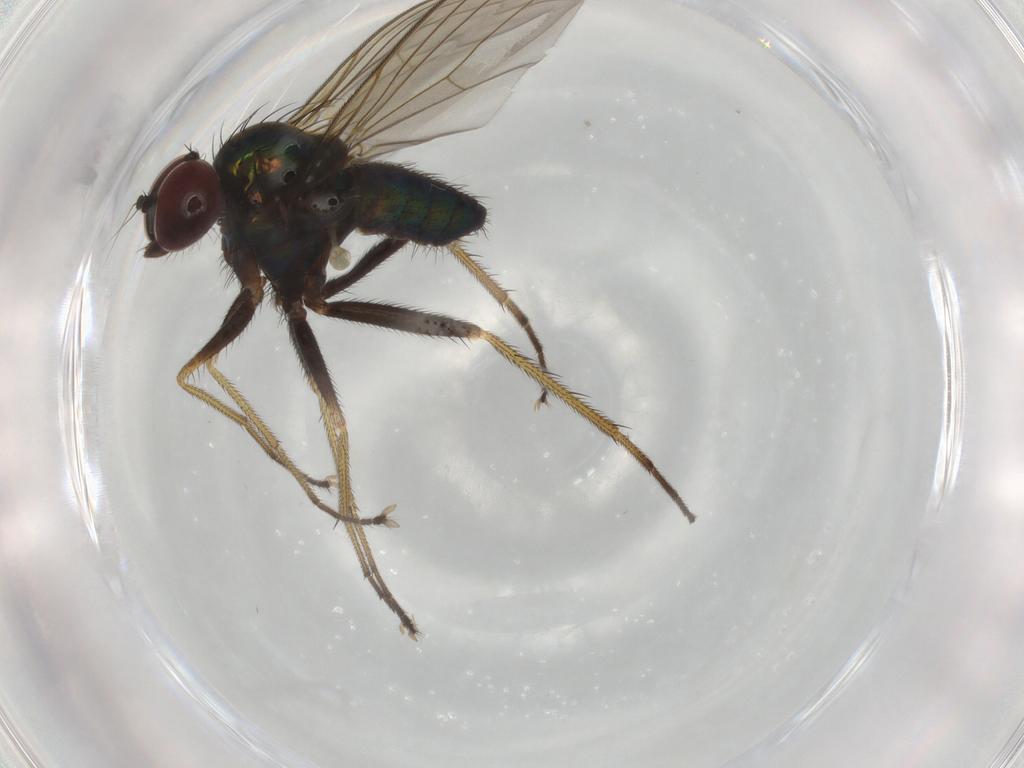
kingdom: Animalia
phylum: Arthropoda
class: Insecta
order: Diptera
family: Dolichopodidae
